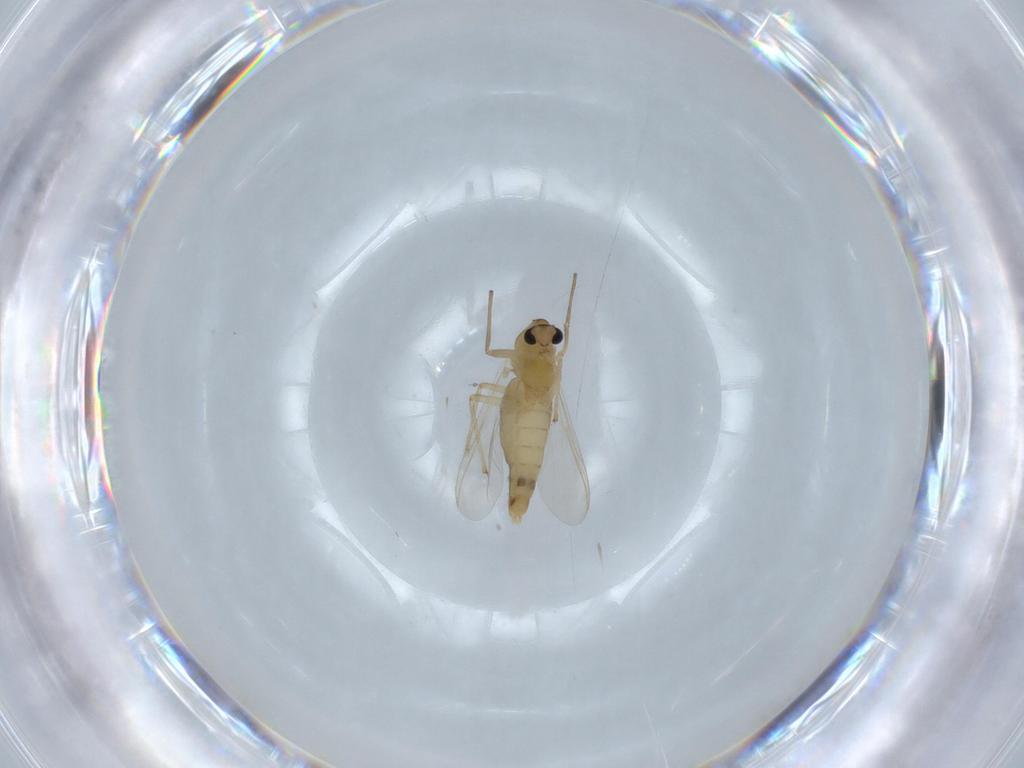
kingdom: Animalia
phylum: Arthropoda
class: Insecta
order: Diptera
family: Chironomidae
